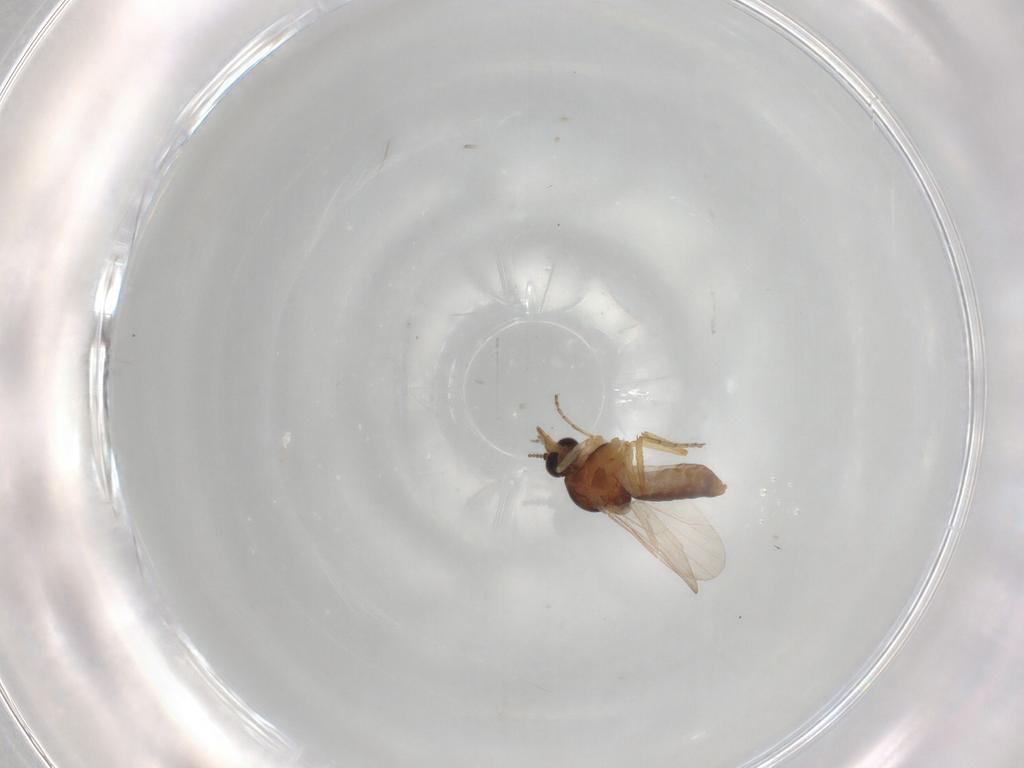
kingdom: Animalia
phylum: Arthropoda
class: Insecta
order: Diptera
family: Ceratopogonidae
